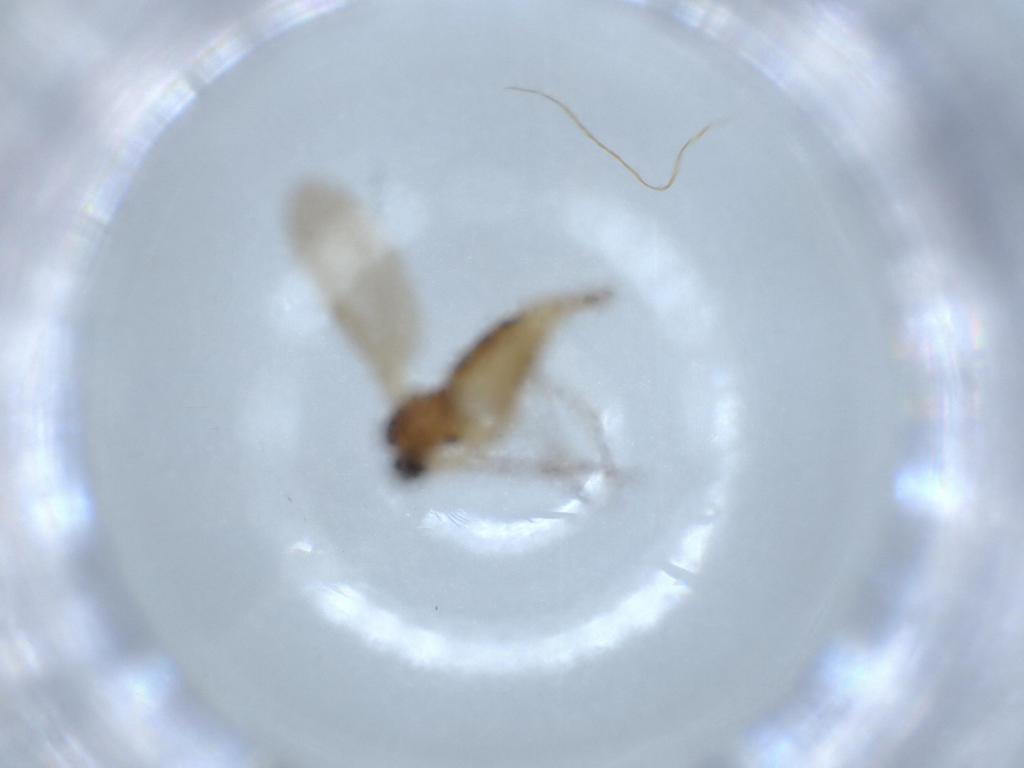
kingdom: Animalia
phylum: Arthropoda
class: Insecta
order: Diptera
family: Sciaridae
